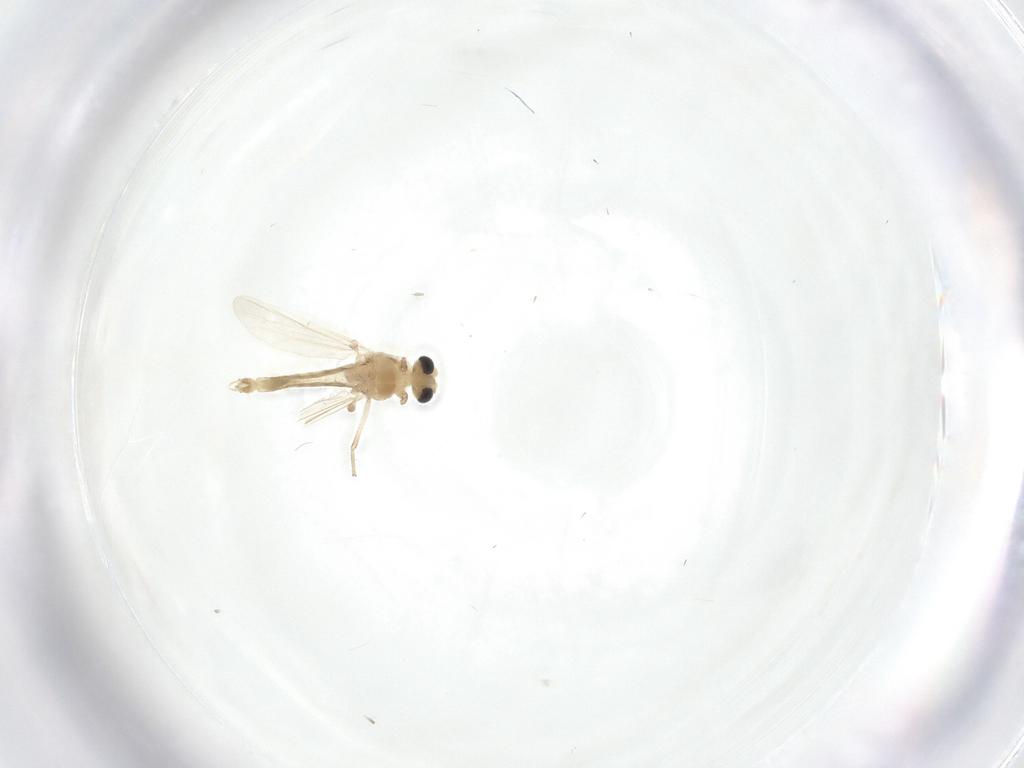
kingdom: Animalia
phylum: Arthropoda
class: Insecta
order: Diptera
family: Chironomidae
